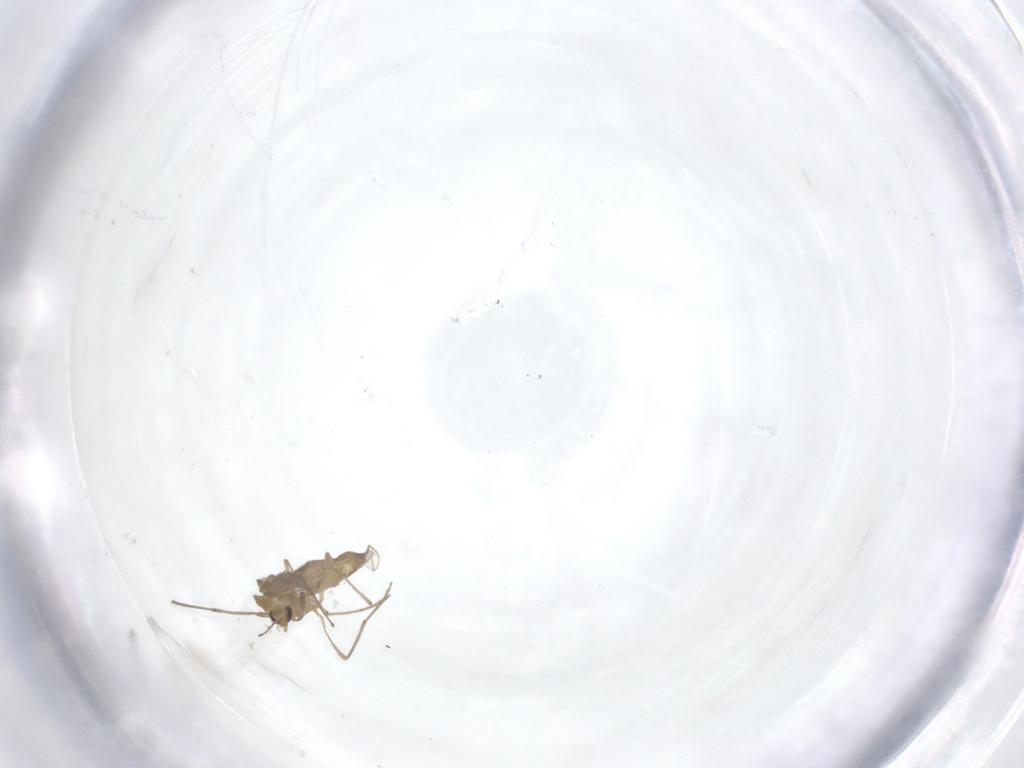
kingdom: Animalia
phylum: Arthropoda
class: Insecta
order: Diptera
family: Chironomidae
